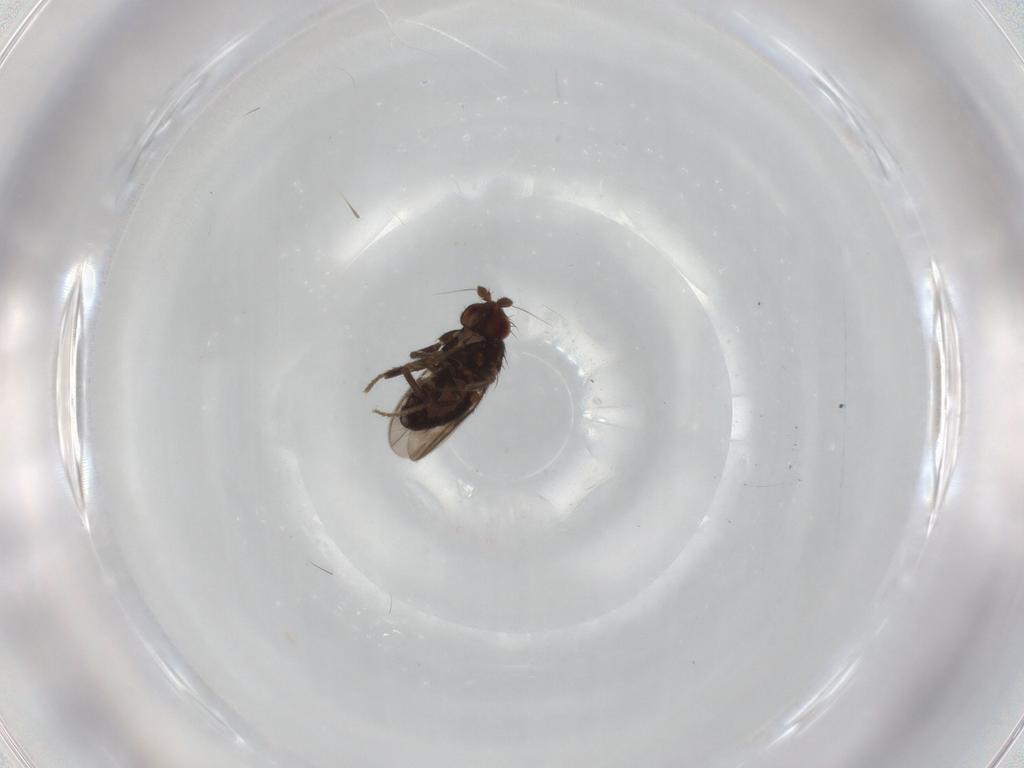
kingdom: Animalia
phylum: Arthropoda
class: Insecta
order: Diptera
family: Sphaeroceridae
